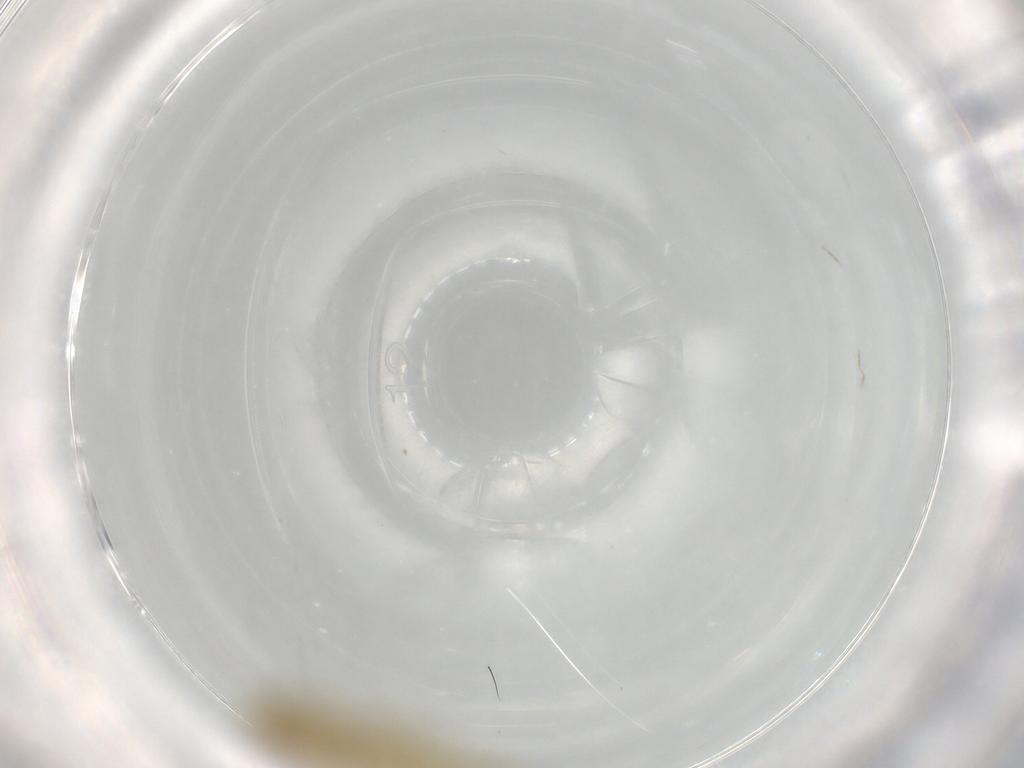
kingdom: Animalia
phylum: Arthropoda
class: Insecta
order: Hemiptera
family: Cicadellidae
